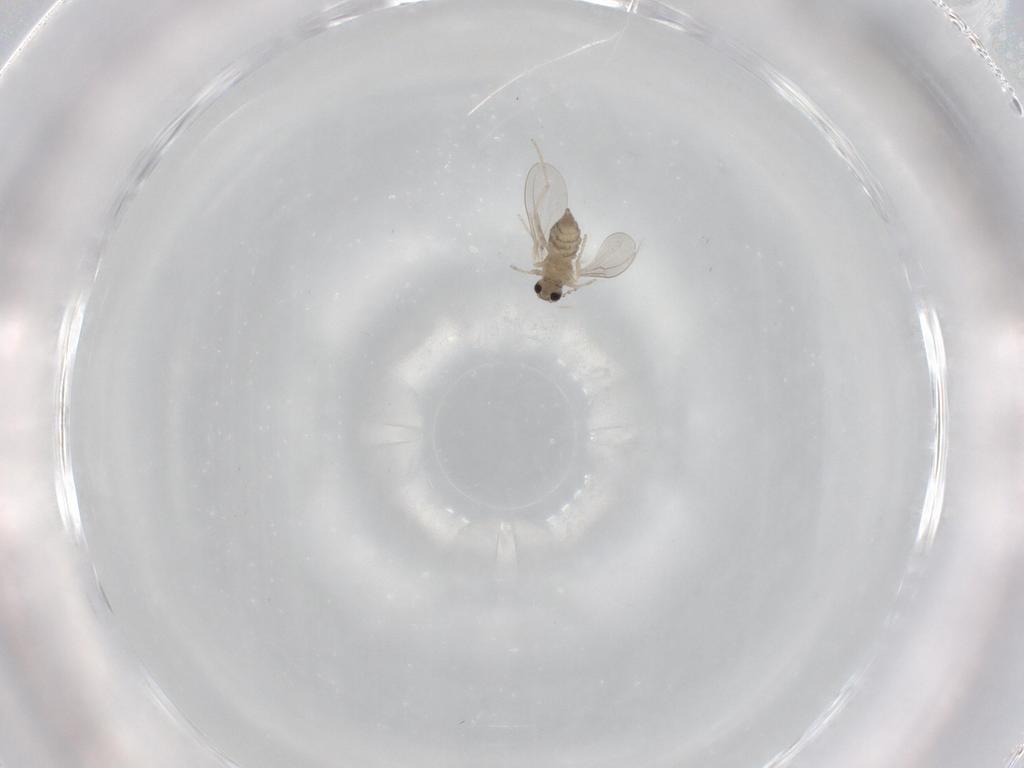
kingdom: Animalia
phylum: Arthropoda
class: Insecta
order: Diptera
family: Cecidomyiidae
